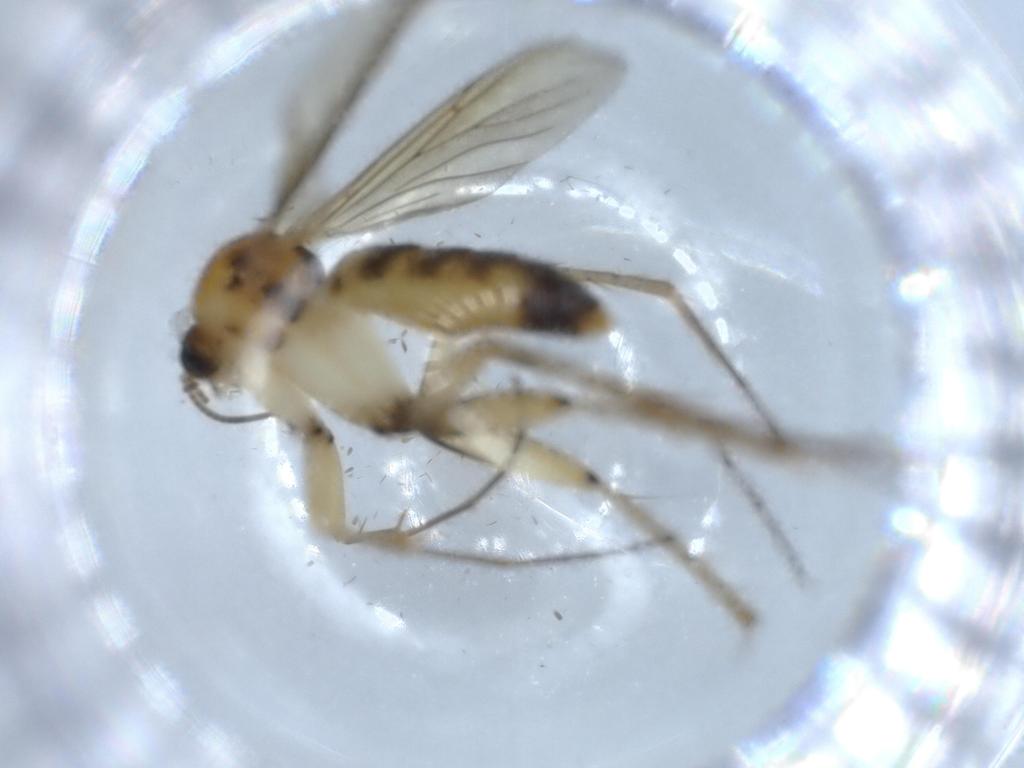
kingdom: Animalia
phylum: Arthropoda
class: Insecta
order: Diptera
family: Mycetophilidae
